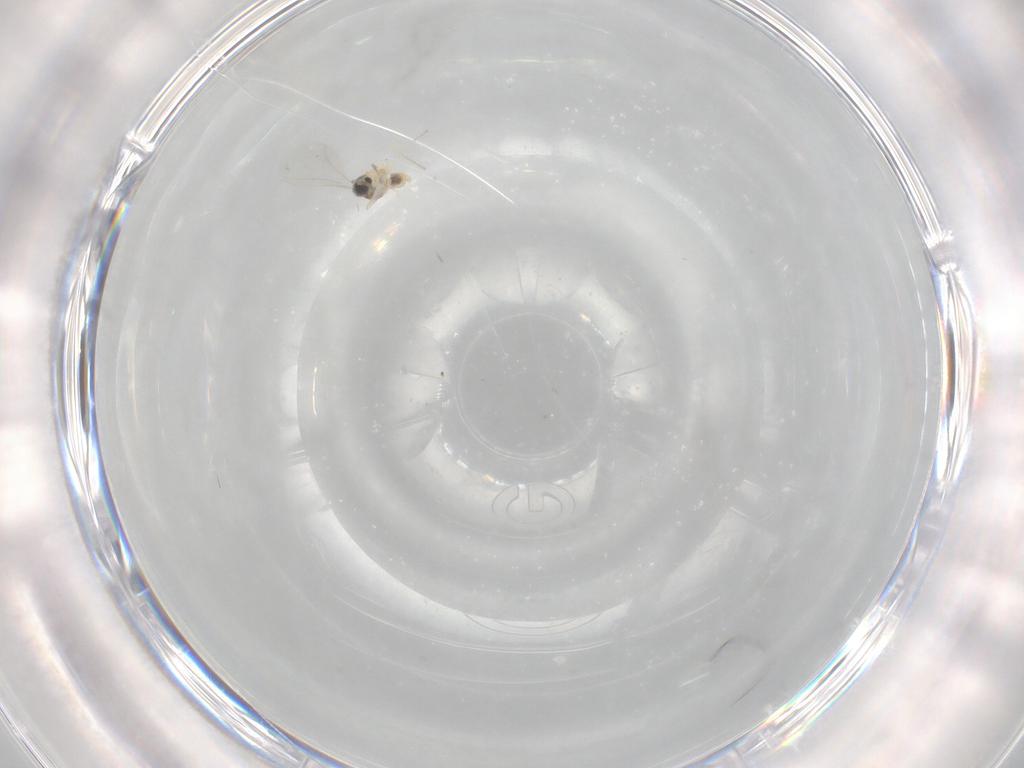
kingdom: Animalia
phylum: Arthropoda
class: Insecta
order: Diptera
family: Cecidomyiidae
